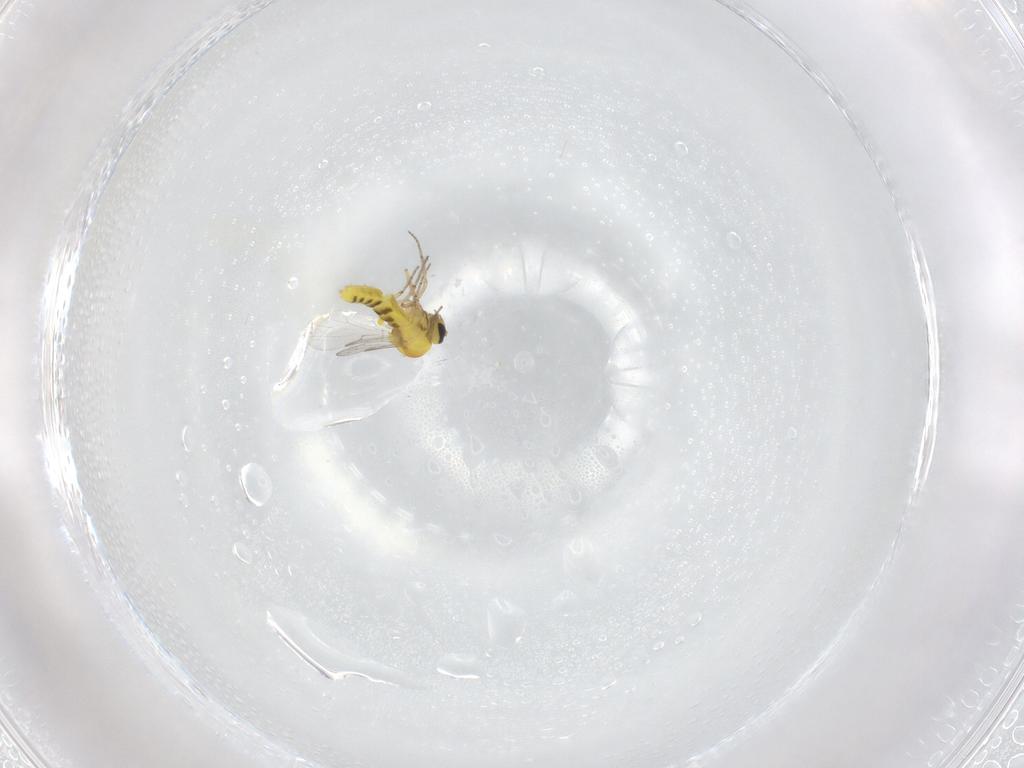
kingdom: Animalia
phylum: Arthropoda
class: Insecta
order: Diptera
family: Ceratopogonidae
